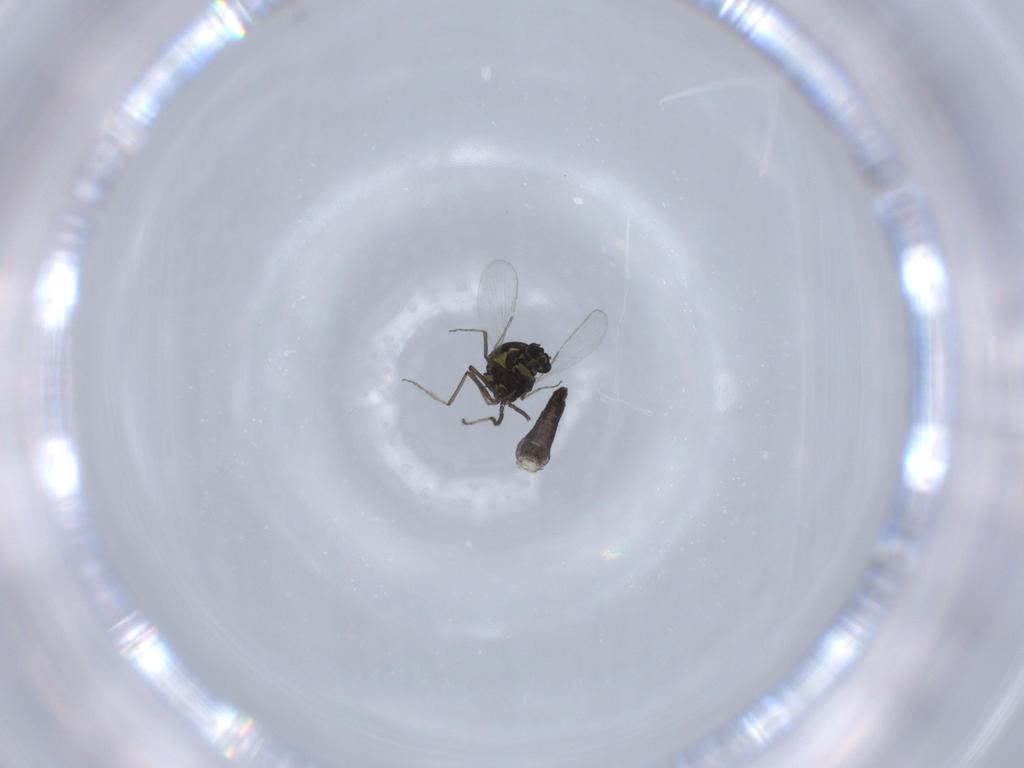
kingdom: Animalia
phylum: Arthropoda
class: Insecta
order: Diptera
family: Ceratopogonidae
